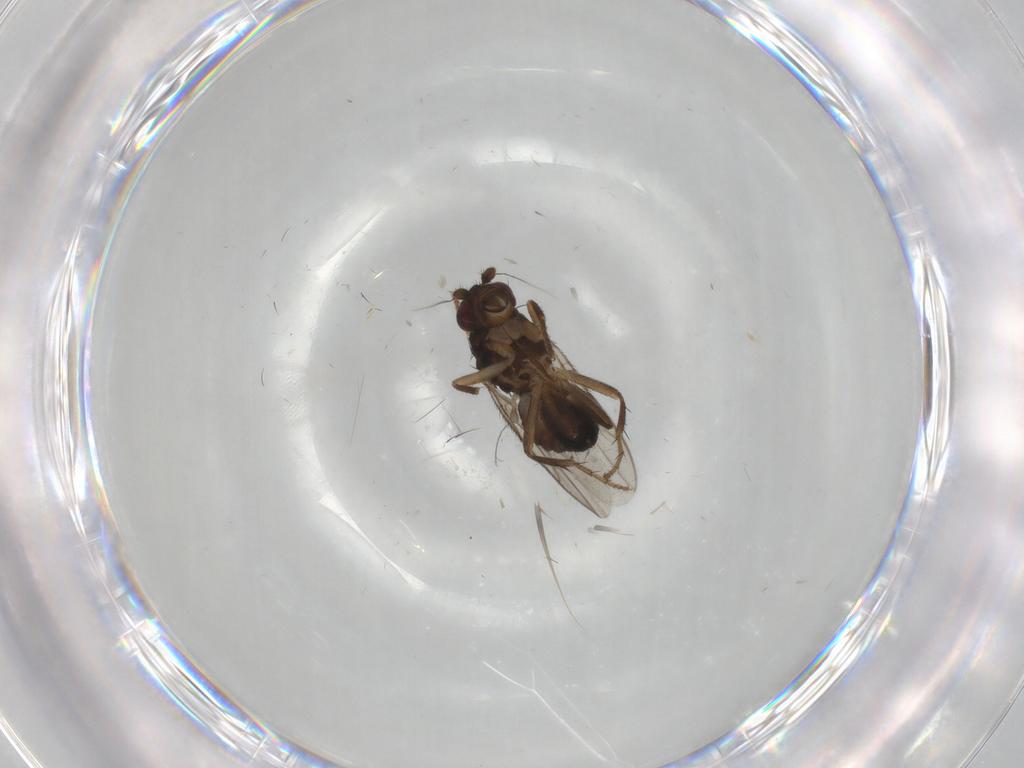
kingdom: Animalia
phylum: Arthropoda
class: Insecta
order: Diptera
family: Sphaeroceridae
